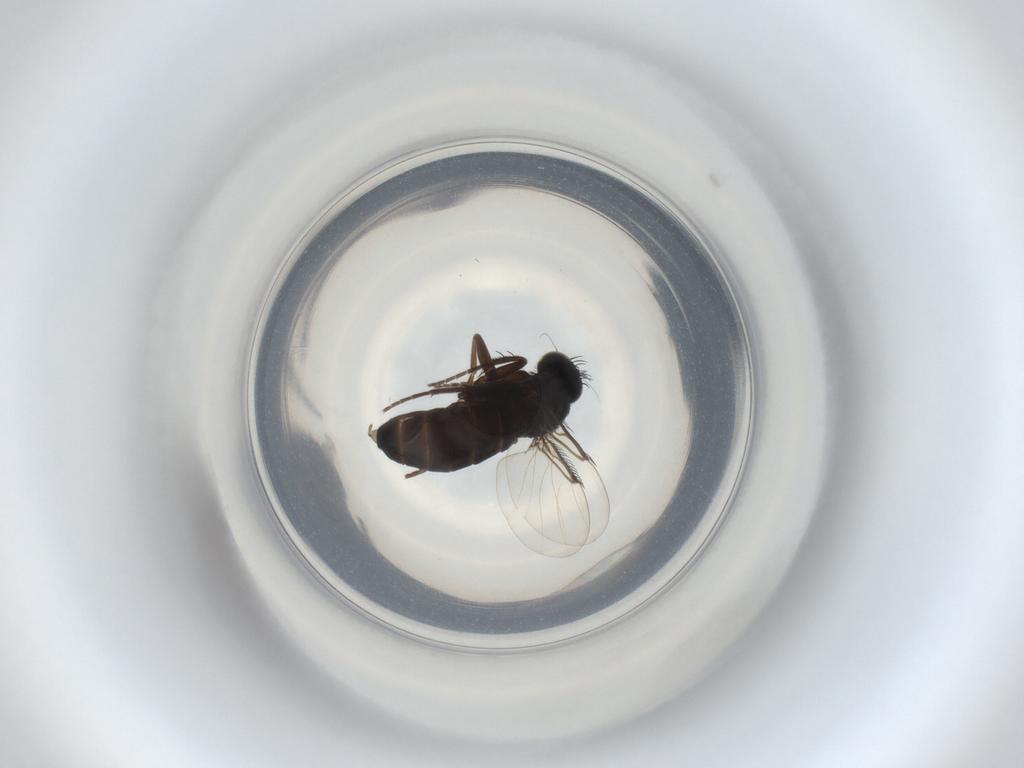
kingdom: Animalia
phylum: Arthropoda
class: Insecta
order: Diptera
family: Phoridae
